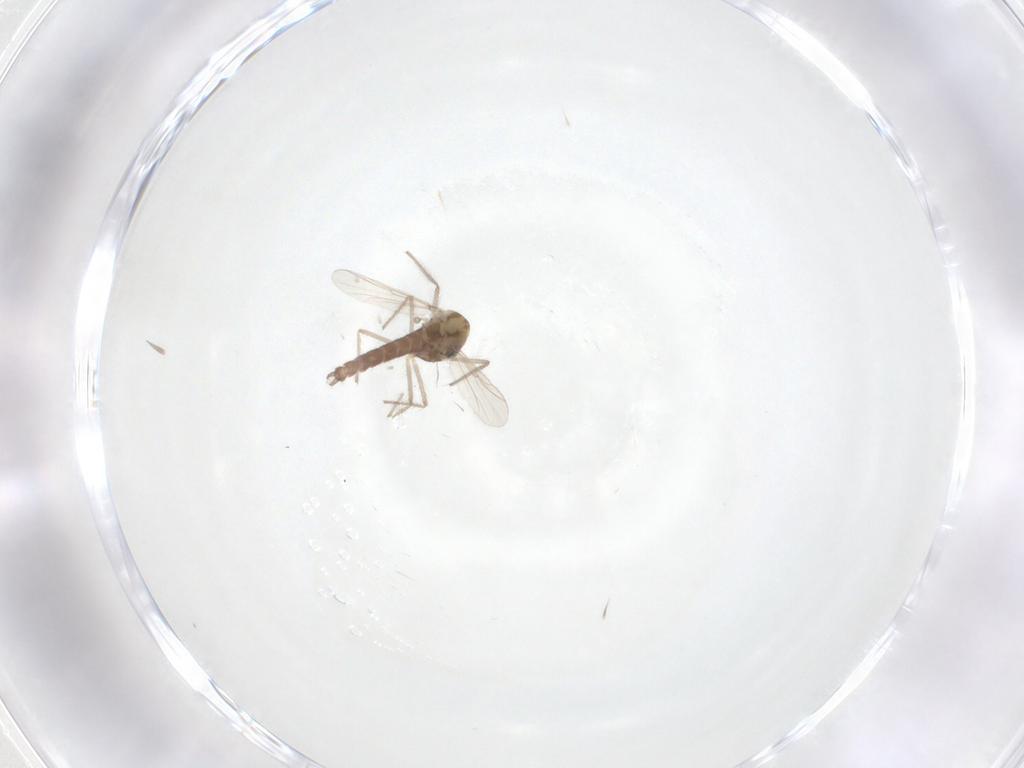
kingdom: Animalia
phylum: Arthropoda
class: Insecta
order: Diptera
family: Chironomidae
